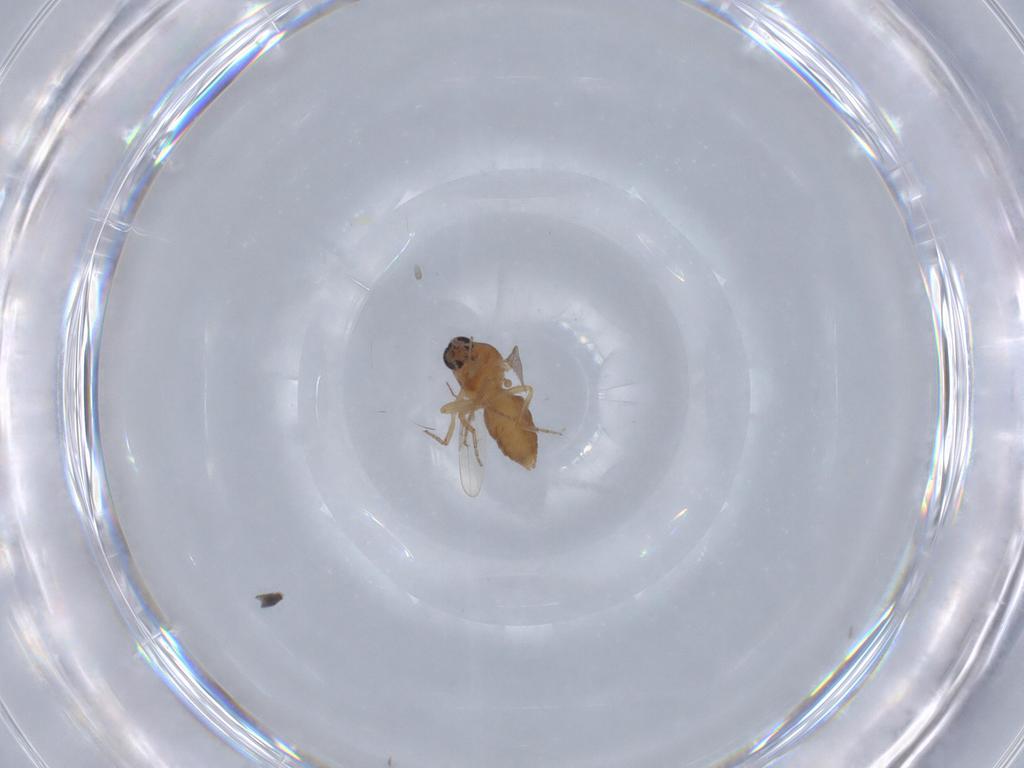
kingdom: Animalia
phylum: Arthropoda
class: Insecta
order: Diptera
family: Ceratopogonidae
